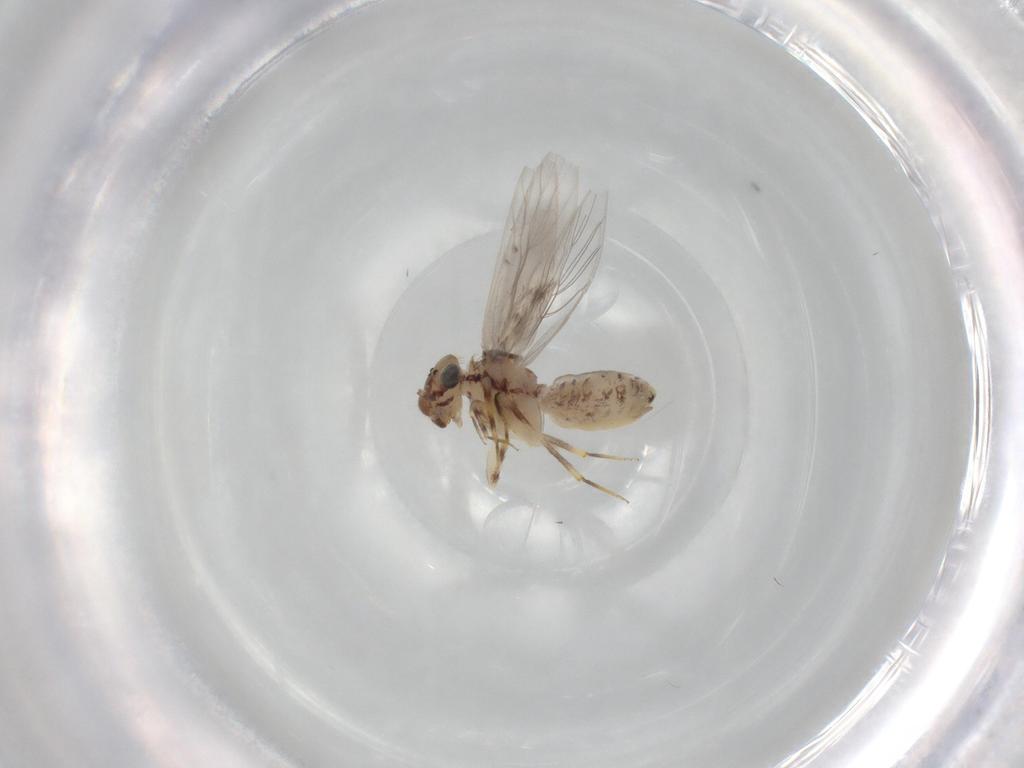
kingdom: Animalia
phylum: Arthropoda
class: Insecta
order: Psocodea
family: Lepidopsocidae
